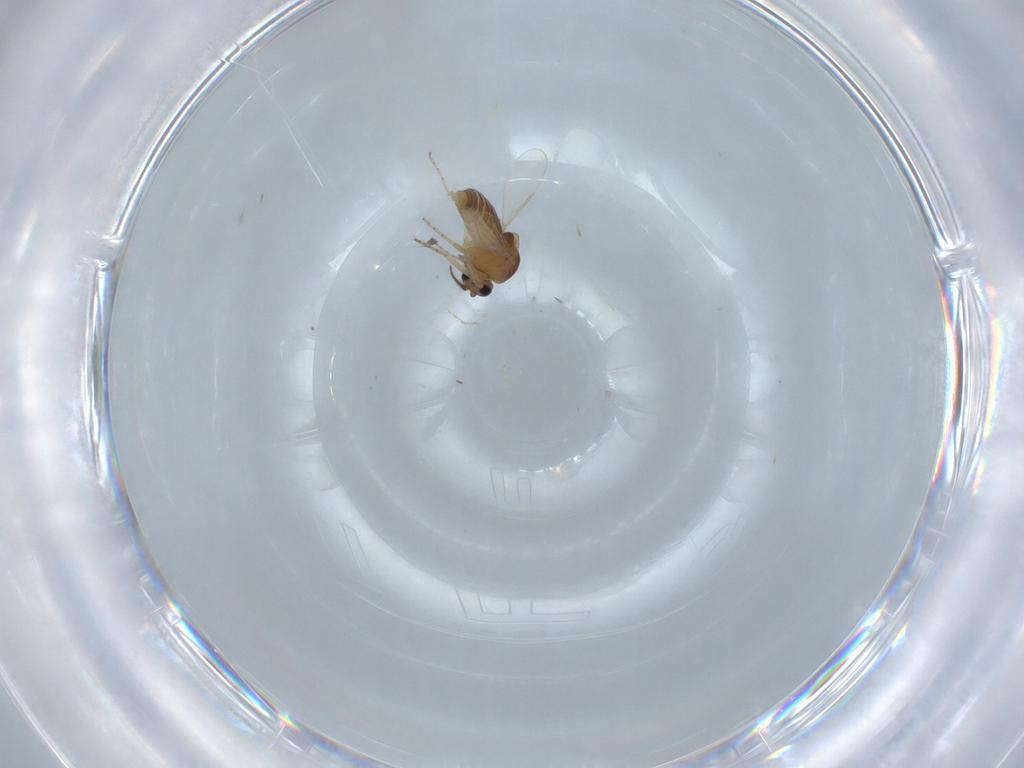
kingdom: Animalia
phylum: Arthropoda
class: Insecta
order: Diptera
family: Ceratopogonidae
